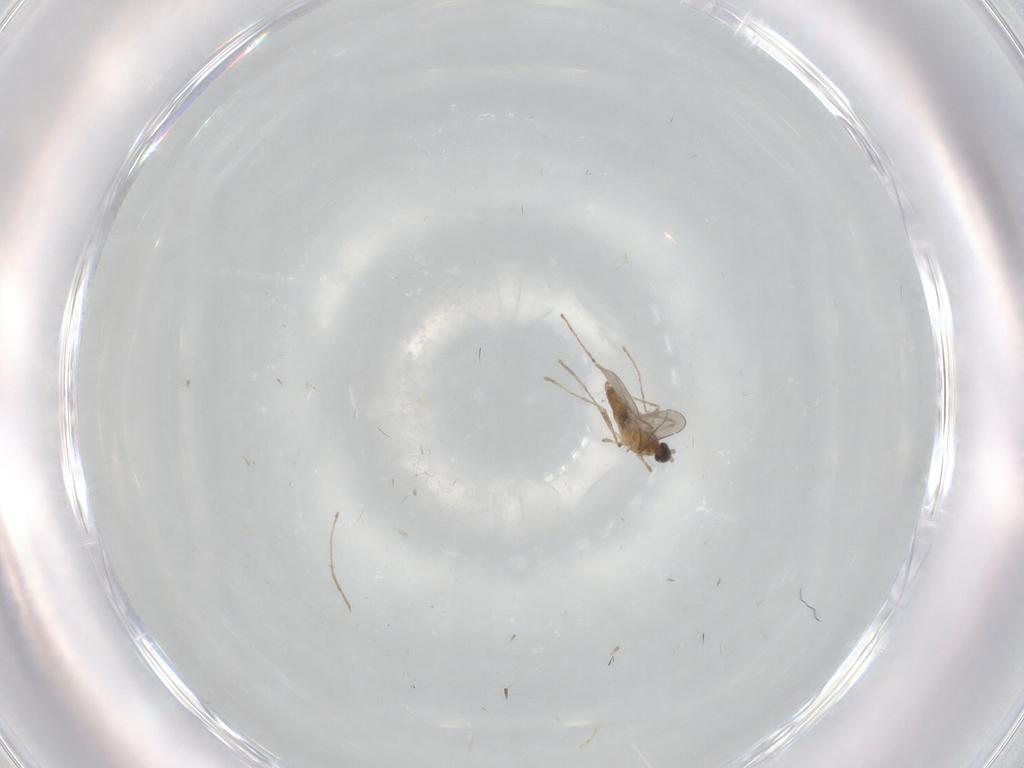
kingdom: Animalia
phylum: Arthropoda
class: Insecta
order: Diptera
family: Cecidomyiidae
